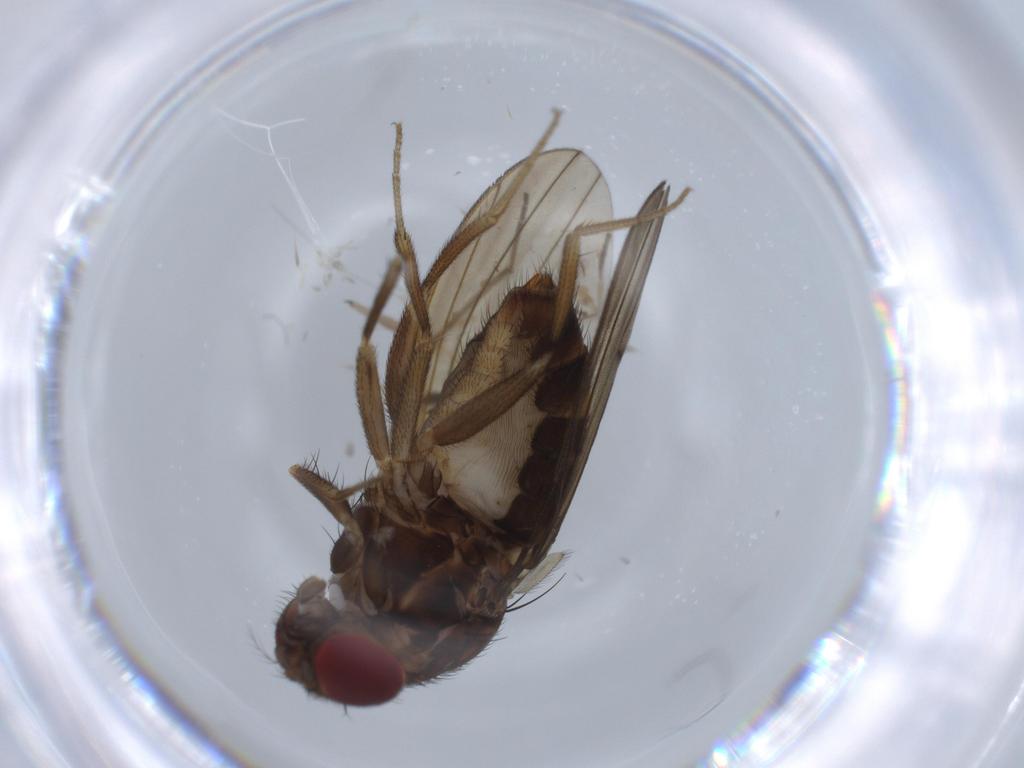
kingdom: Animalia
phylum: Arthropoda
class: Insecta
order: Diptera
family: Drosophilidae
